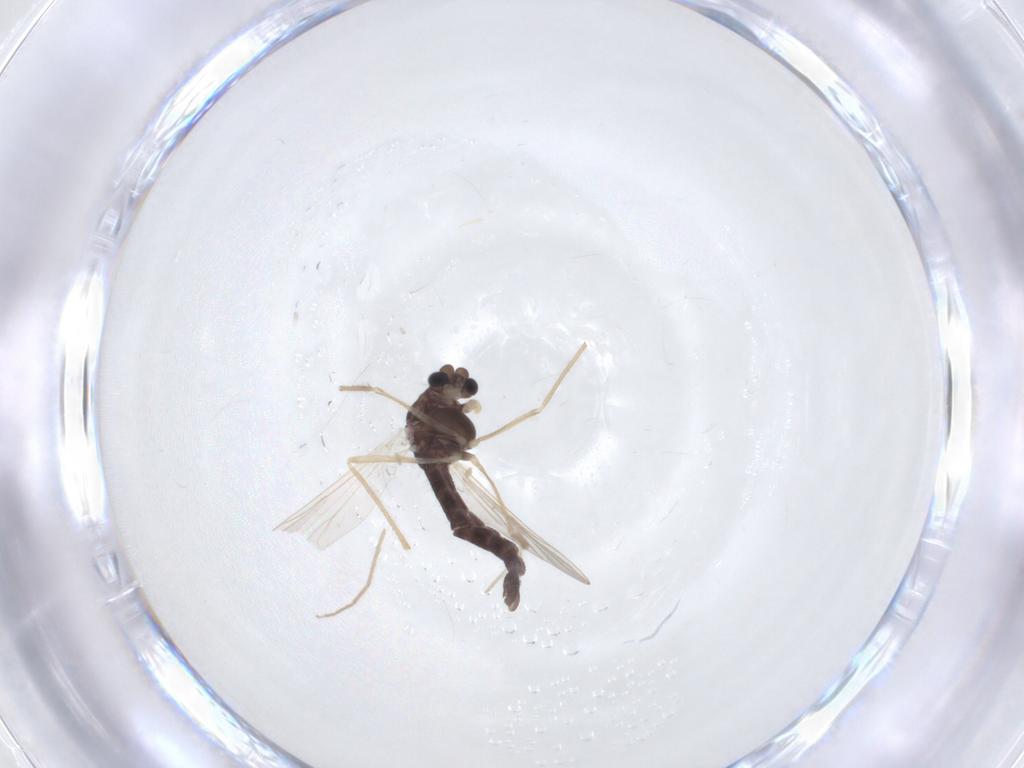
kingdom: Animalia
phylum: Arthropoda
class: Insecta
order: Diptera
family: Chironomidae
